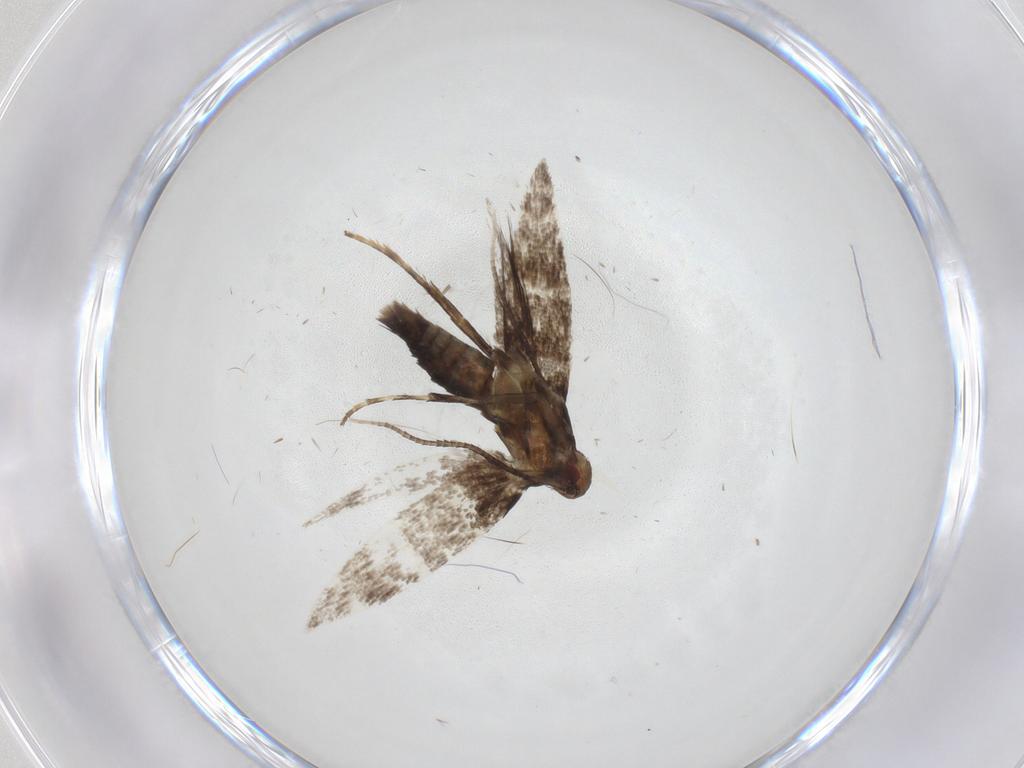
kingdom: Animalia
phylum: Arthropoda
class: Insecta
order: Lepidoptera
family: Gracillariidae
